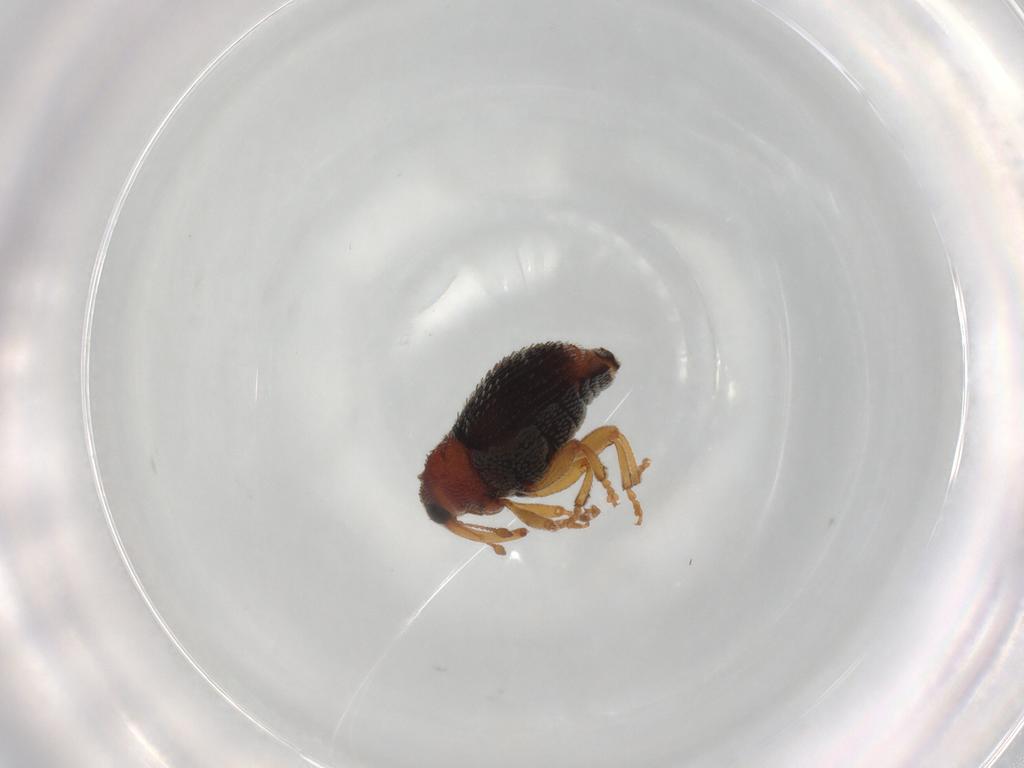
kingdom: Animalia
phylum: Arthropoda
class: Insecta
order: Coleoptera
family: Curculionidae
